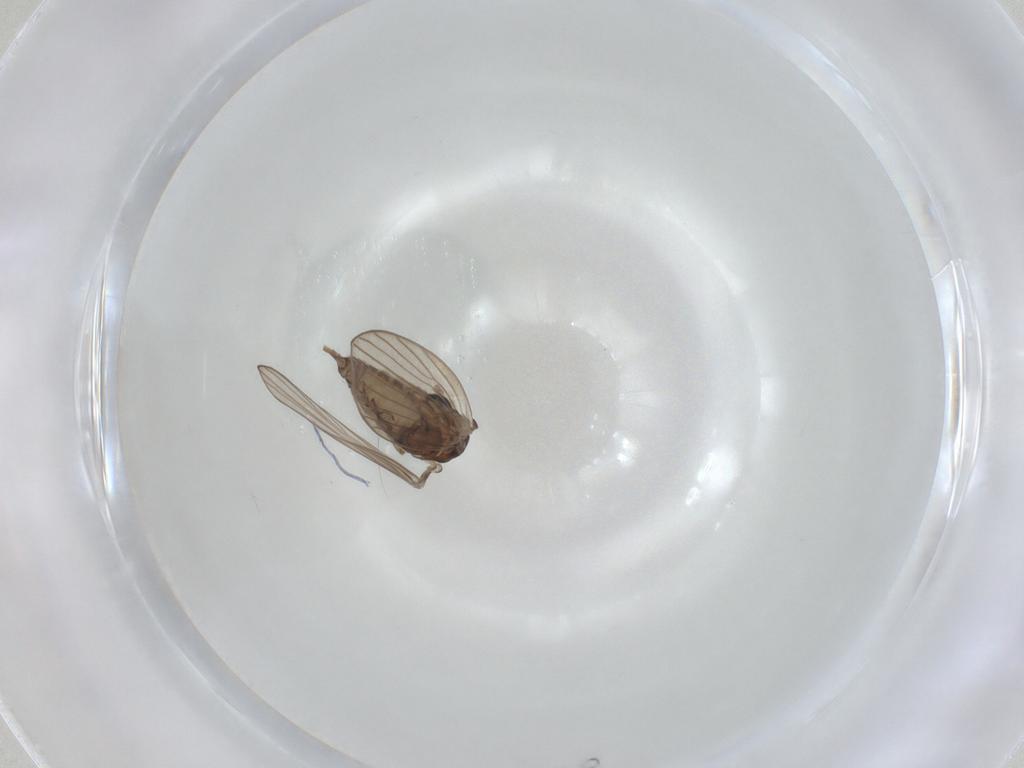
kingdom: Animalia
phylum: Arthropoda
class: Insecta
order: Diptera
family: Psychodidae
